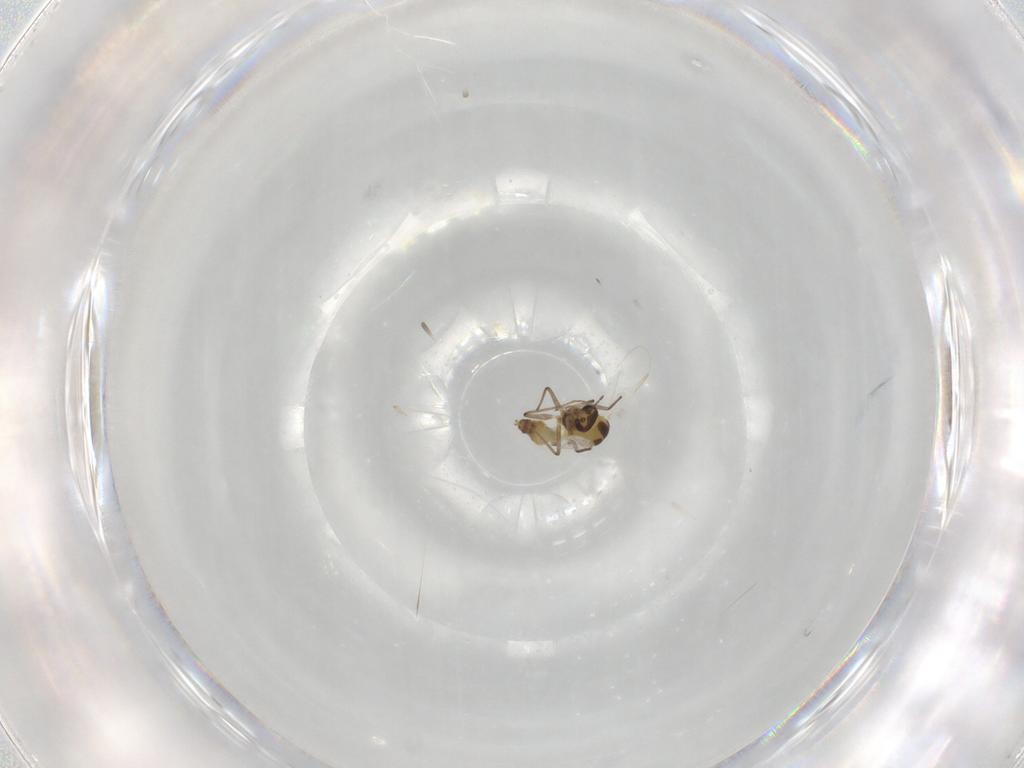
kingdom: Animalia
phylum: Arthropoda
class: Insecta
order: Diptera
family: Chironomidae
